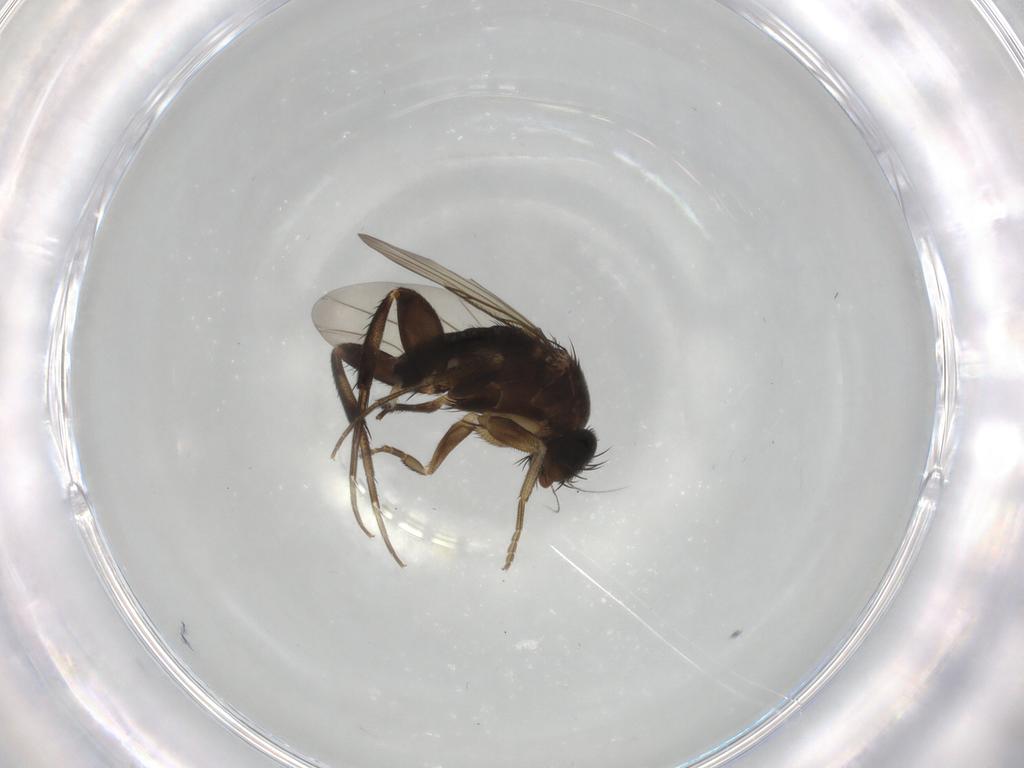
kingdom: Animalia
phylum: Arthropoda
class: Insecta
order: Diptera
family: Phoridae
